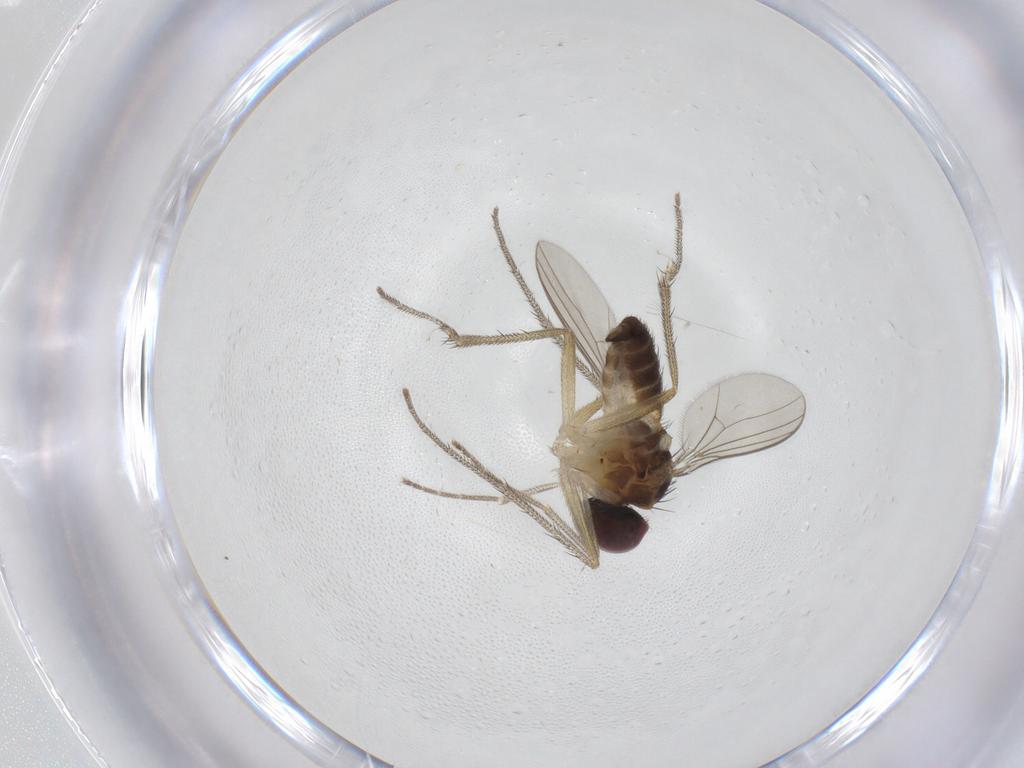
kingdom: Animalia
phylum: Arthropoda
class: Insecta
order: Diptera
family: Dolichopodidae
